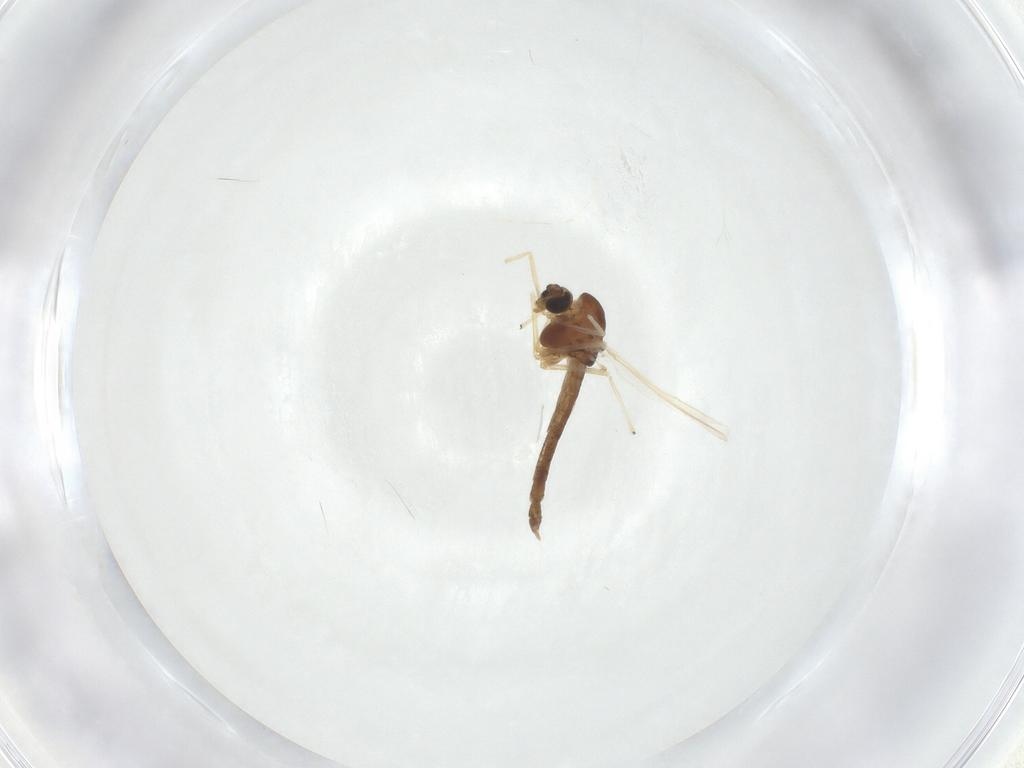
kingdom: Animalia
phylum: Arthropoda
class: Insecta
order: Diptera
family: Chironomidae
